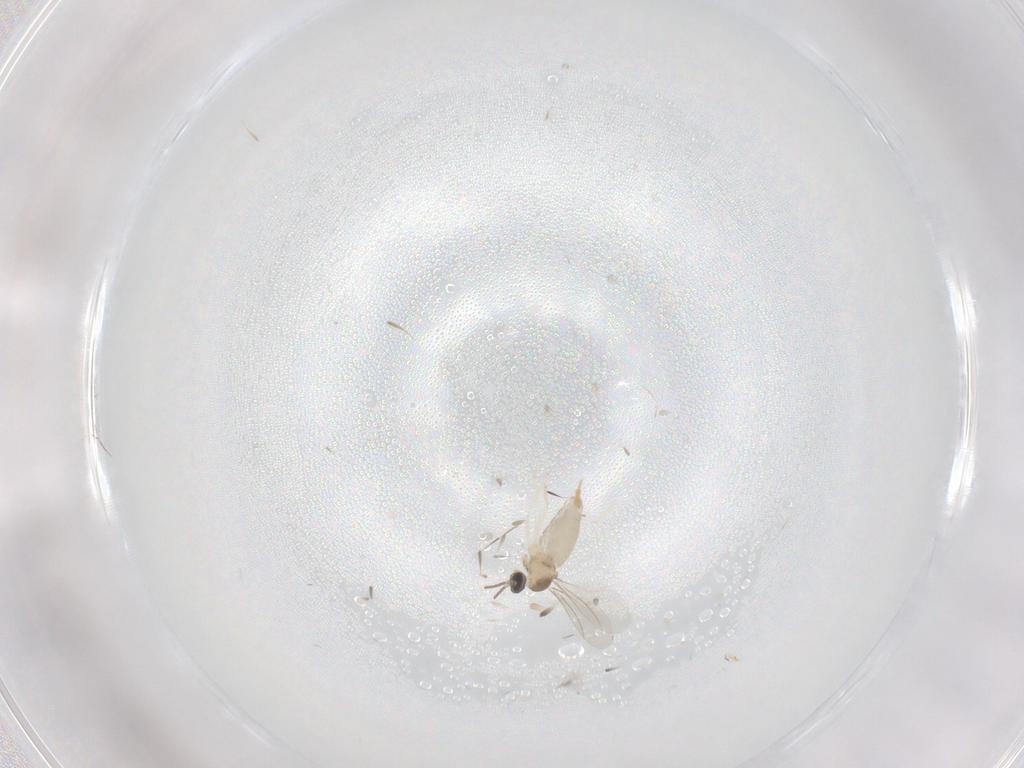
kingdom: Animalia
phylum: Arthropoda
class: Insecta
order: Diptera
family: Cecidomyiidae
